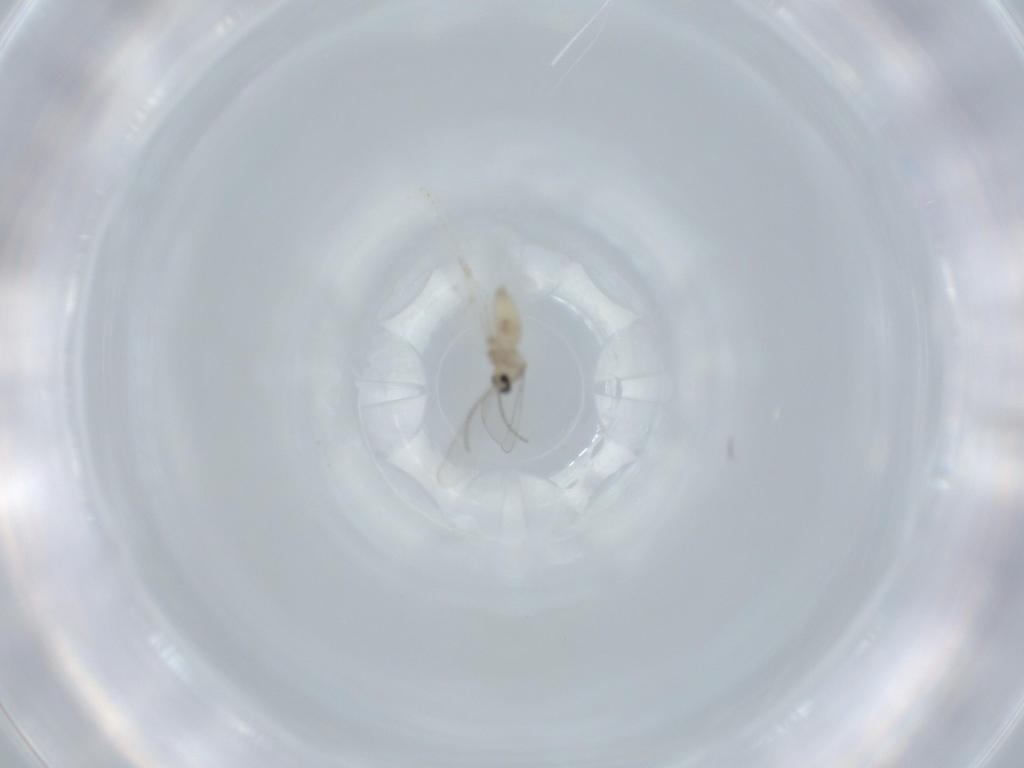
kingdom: Animalia
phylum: Arthropoda
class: Insecta
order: Diptera
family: Cecidomyiidae
